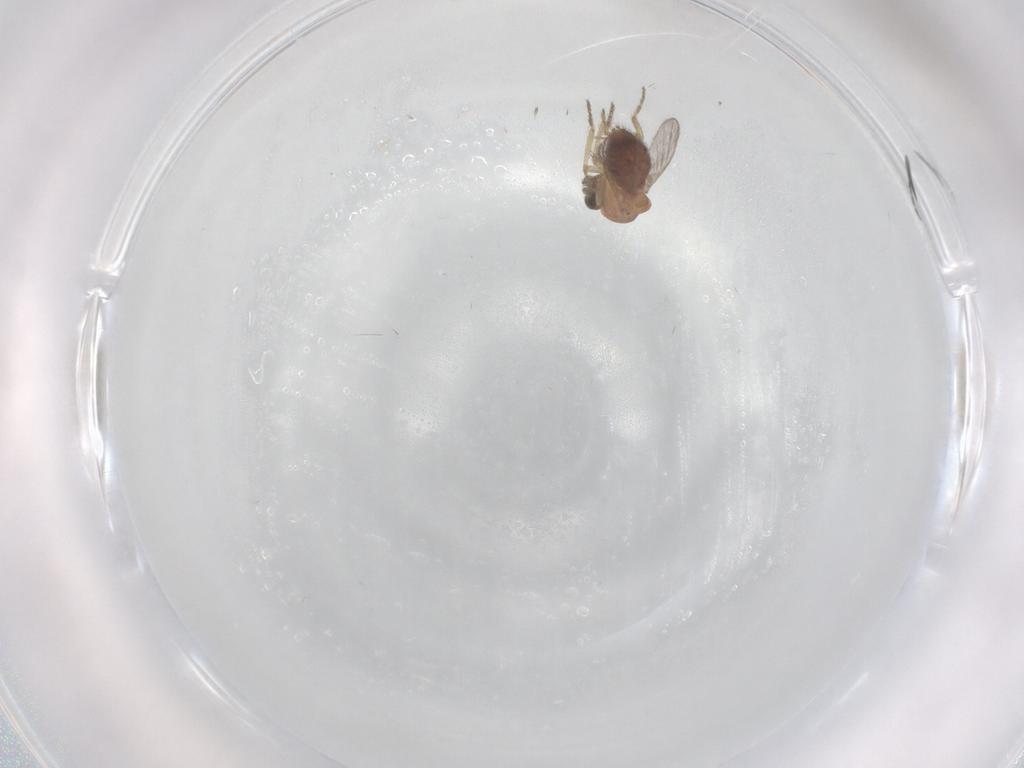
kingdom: Animalia
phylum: Arthropoda
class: Insecta
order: Diptera
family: Ceratopogonidae
